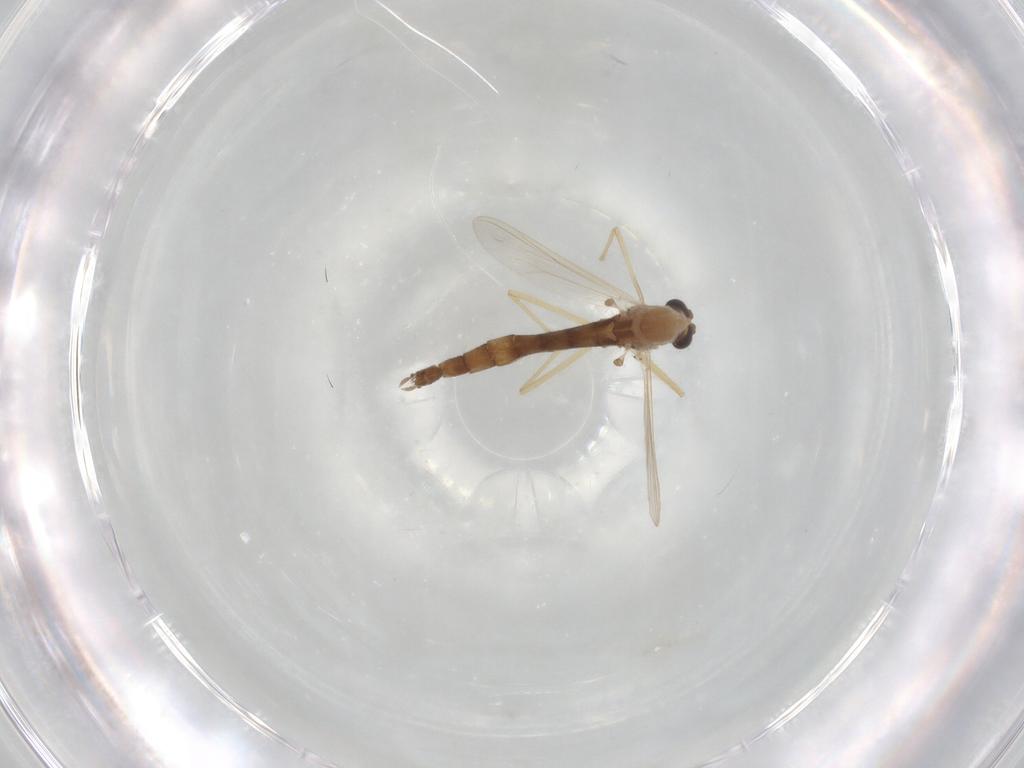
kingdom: Animalia
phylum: Arthropoda
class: Insecta
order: Diptera
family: Chironomidae
